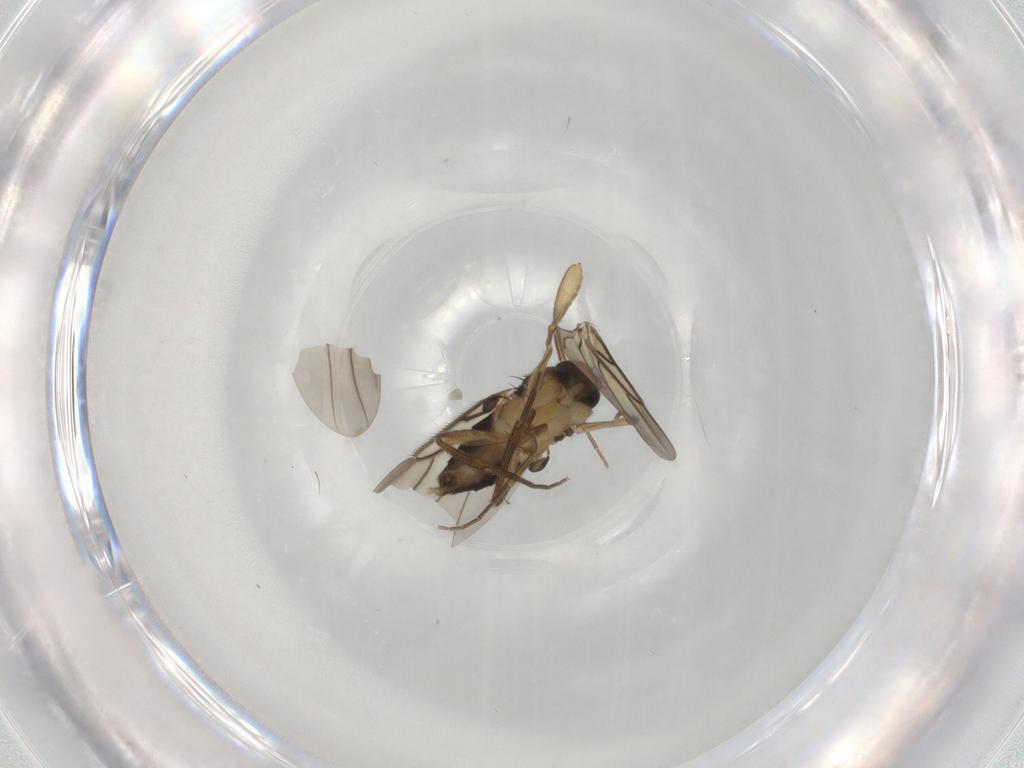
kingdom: Animalia
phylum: Arthropoda
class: Insecta
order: Diptera
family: Phoridae
